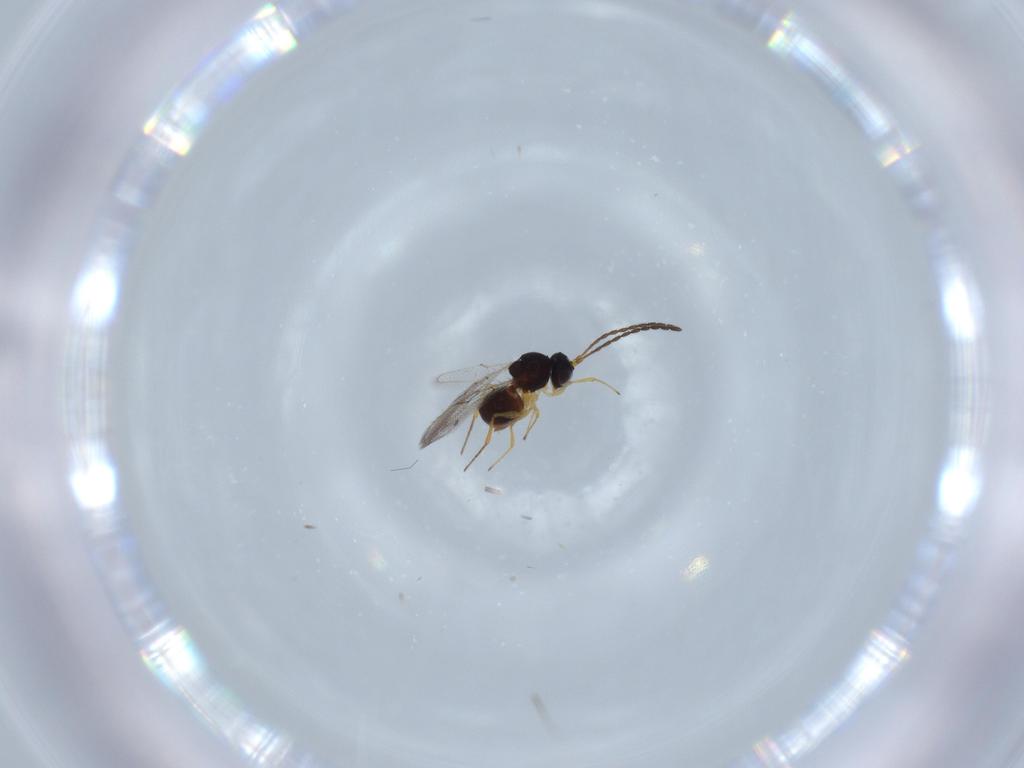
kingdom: Animalia
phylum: Arthropoda
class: Insecta
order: Hymenoptera
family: Figitidae
